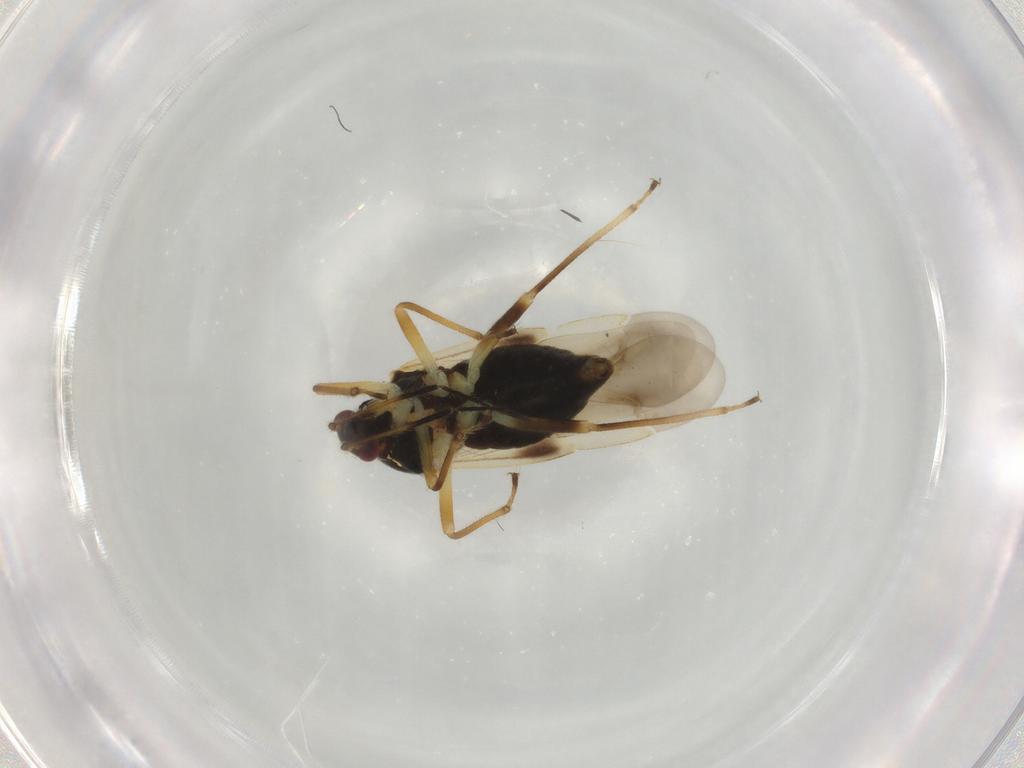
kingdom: Animalia
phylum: Arthropoda
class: Insecta
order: Hemiptera
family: Miridae
